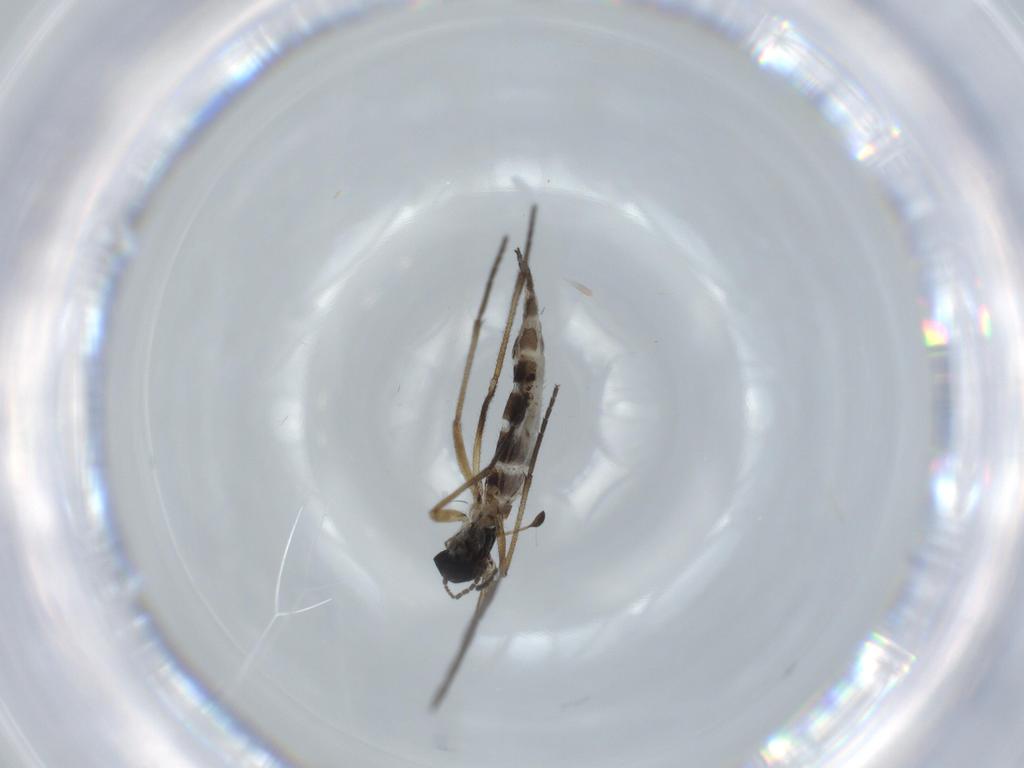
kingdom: Animalia
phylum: Arthropoda
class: Insecta
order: Diptera
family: Sciaridae
